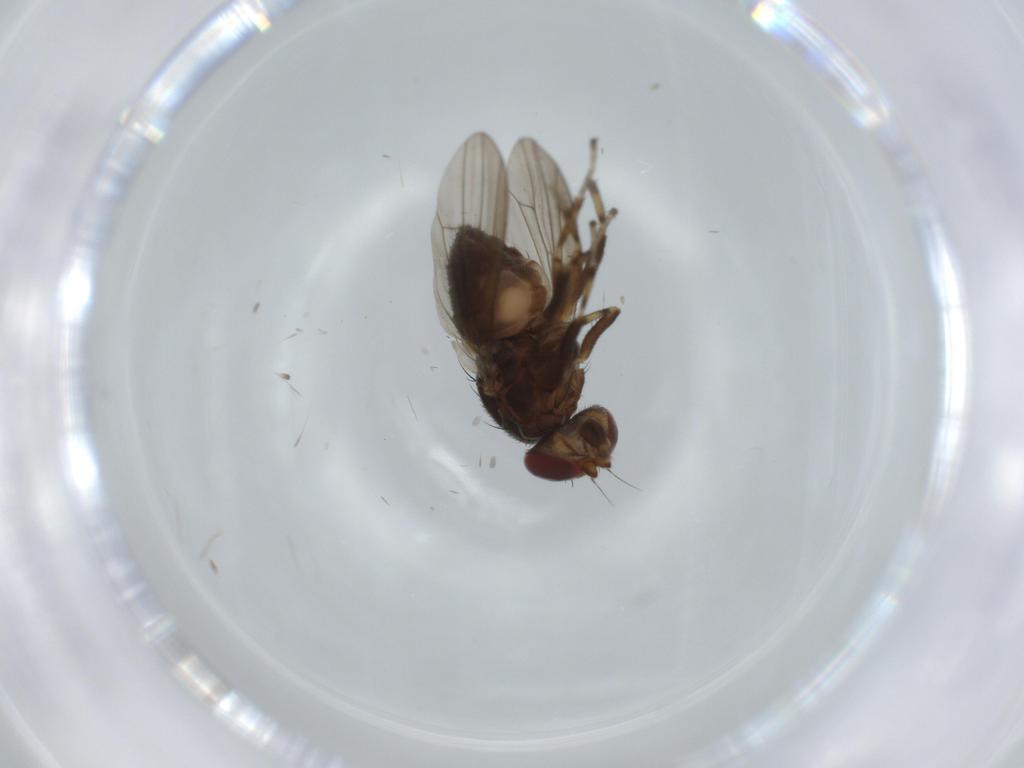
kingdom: Animalia
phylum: Arthropoda
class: Insecta
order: Diptera
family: Heleomyzidae
